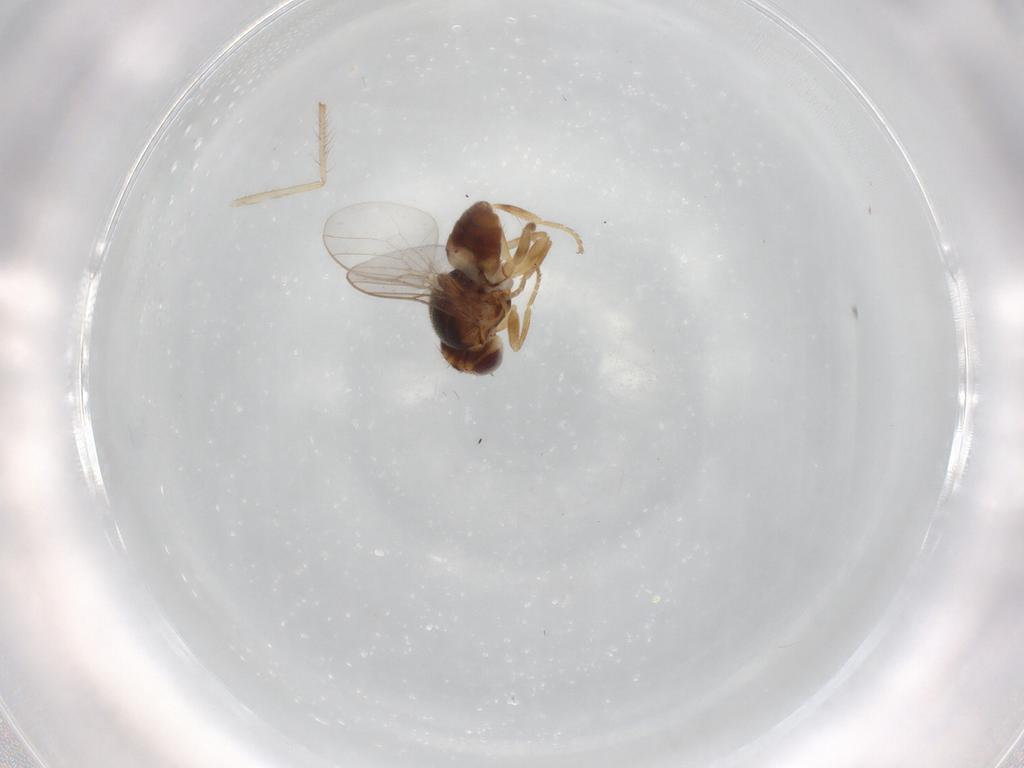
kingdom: Animalia
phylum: Arthropoda
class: Insecta
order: Diptera
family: Chloropidae
